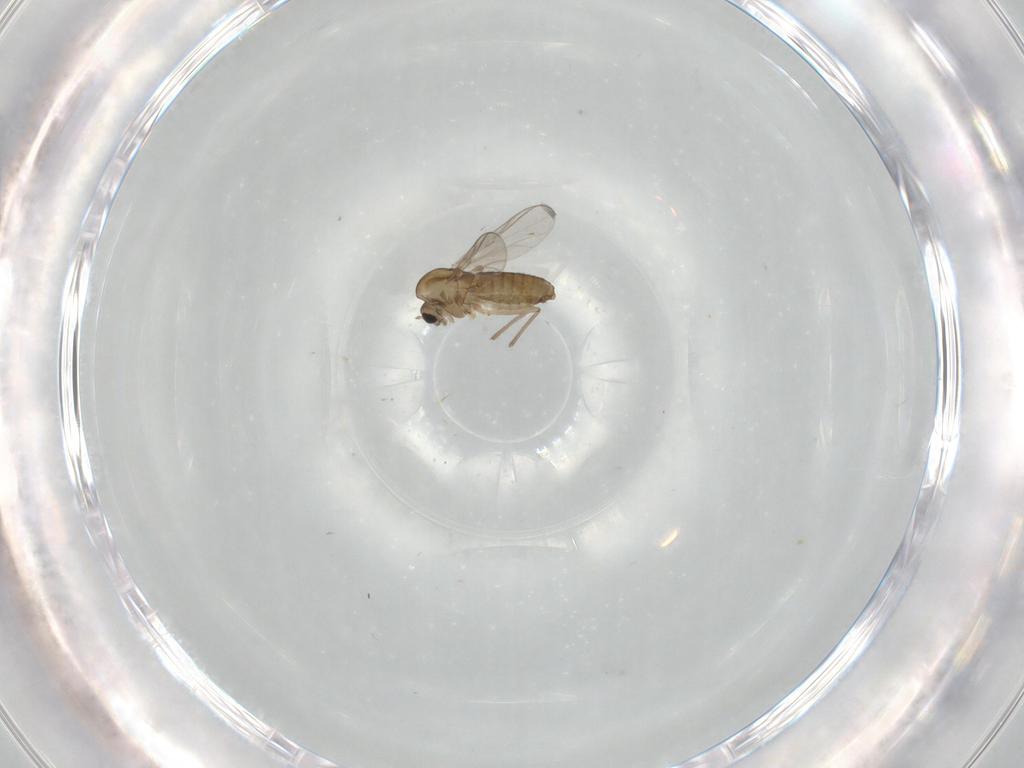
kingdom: Animalia
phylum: Arthropoda
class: Insecta
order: Diptera
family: Chironomidae
